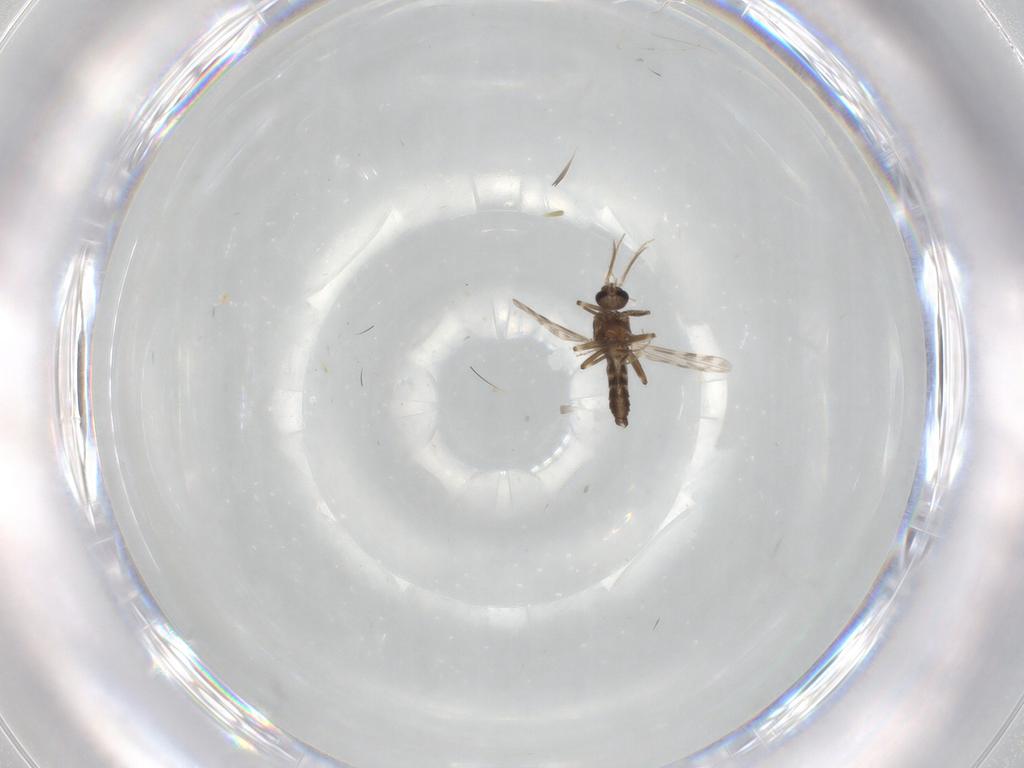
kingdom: Animalia
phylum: Arthropoda
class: Insecta
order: Diptera
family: Ceratopogonidae
